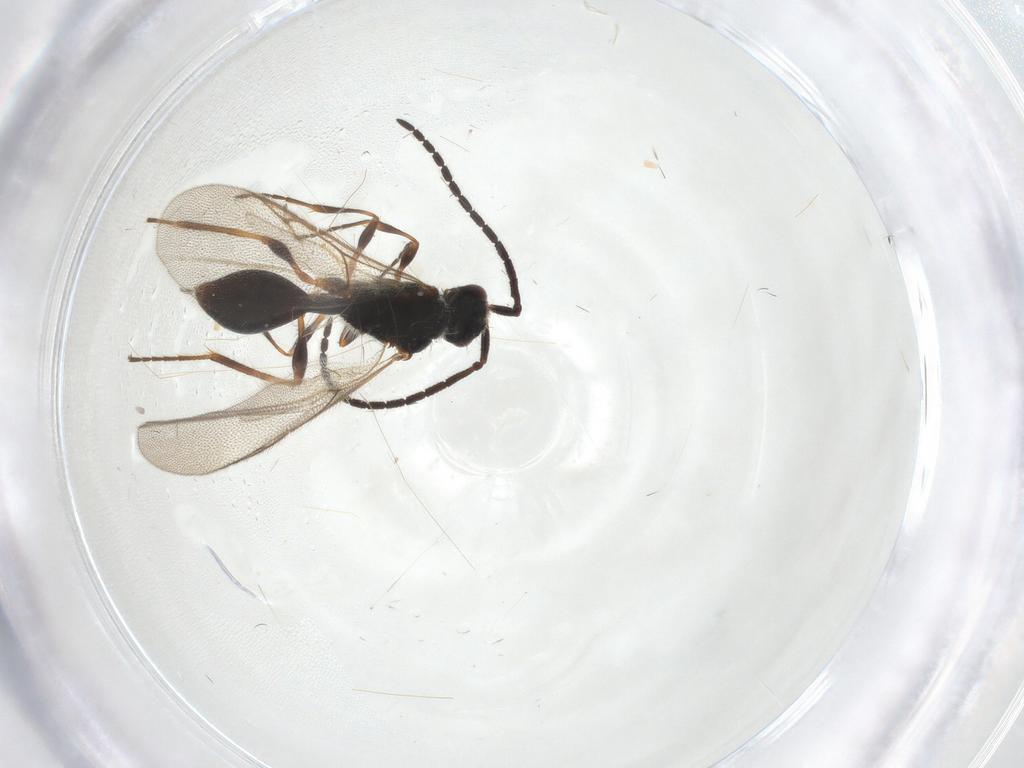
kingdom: Animalia
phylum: Arthropoda
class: Insecta
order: Hymenoptera
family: Diapriidae
